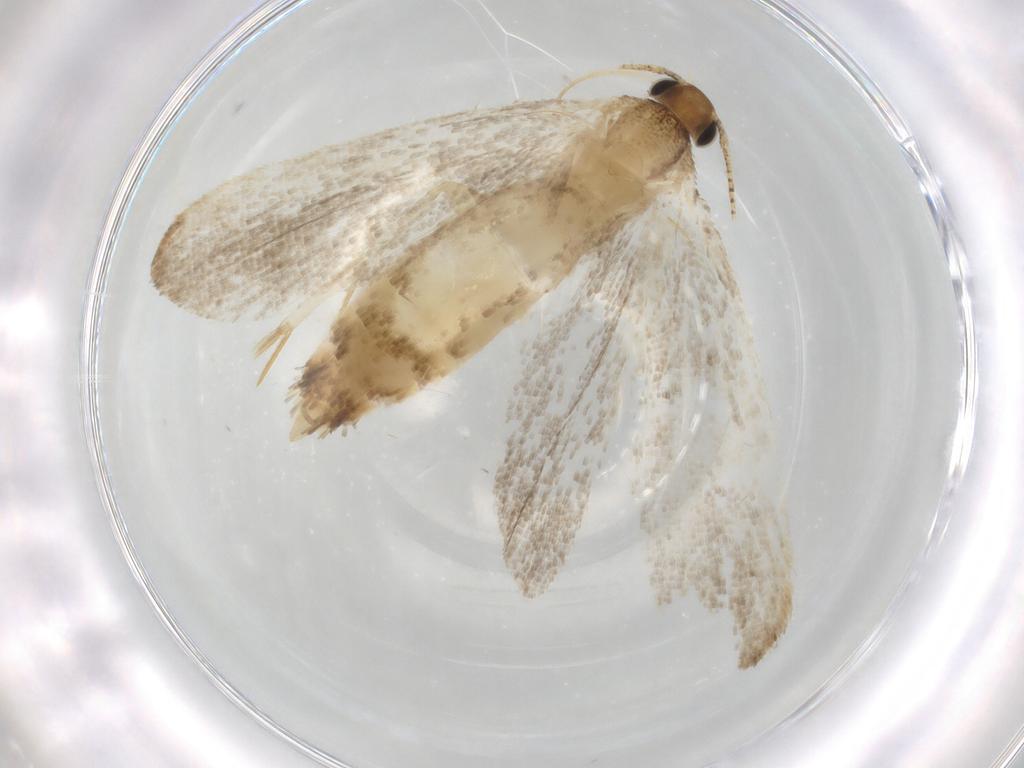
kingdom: Animalia
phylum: Arthropoda
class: Insecta
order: Lepidoptera
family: Autostichidae
